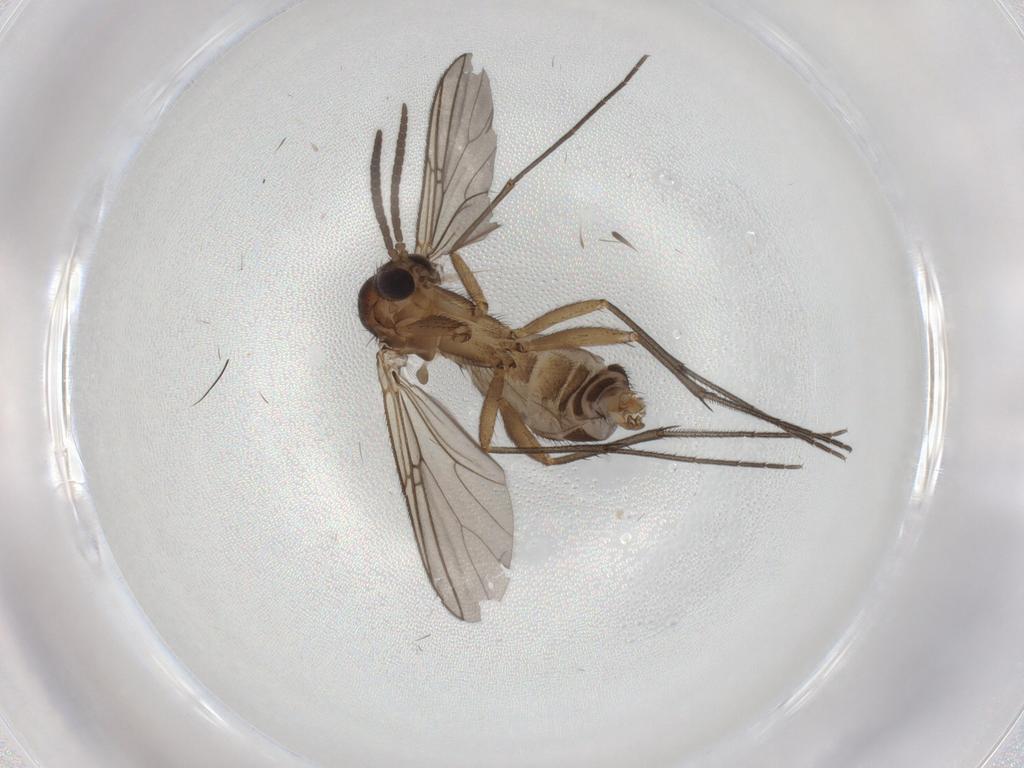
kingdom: Animalia
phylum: Arthropoda
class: Insecta
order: Diptera
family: Mycetophilidae
